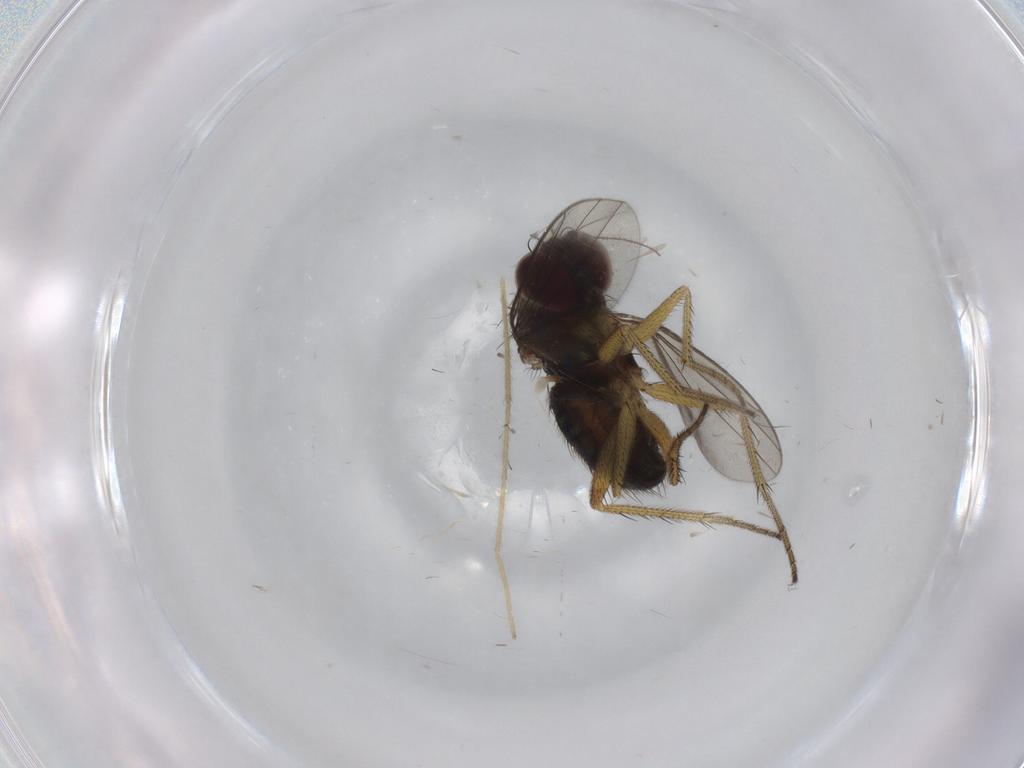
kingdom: Animalia
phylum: Arthropoda
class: Insecta
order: Diptera
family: Dolichopodidae
